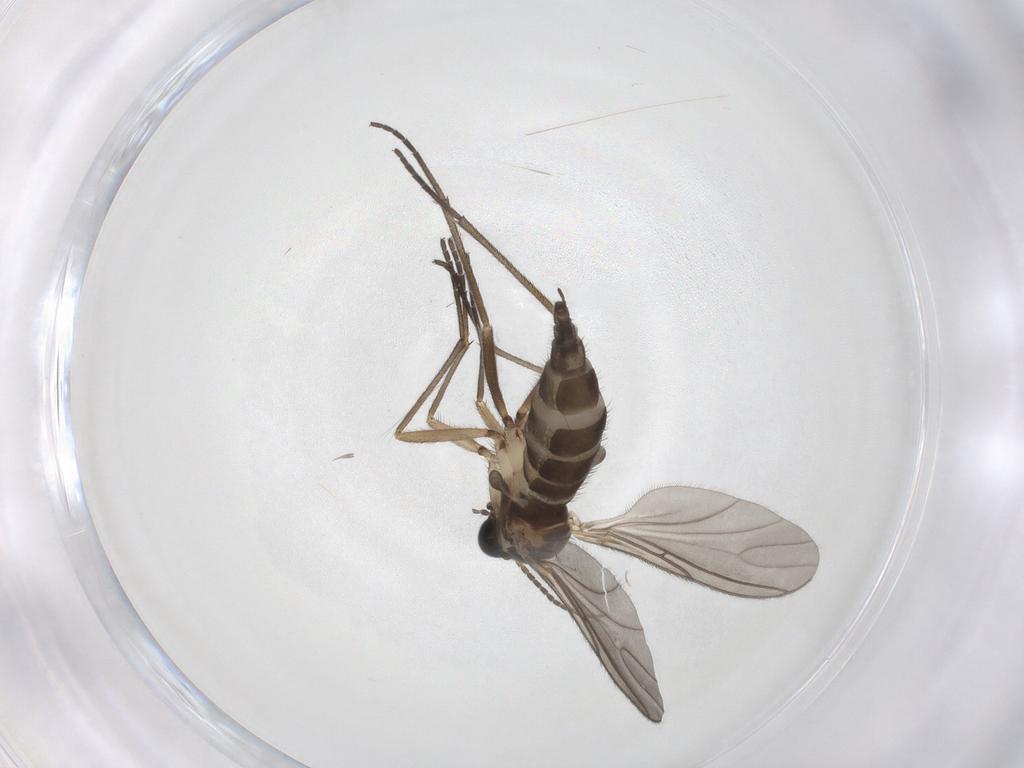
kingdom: Animalia
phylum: Arthropoda
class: Insecta
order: Diptera
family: Sciaridae
